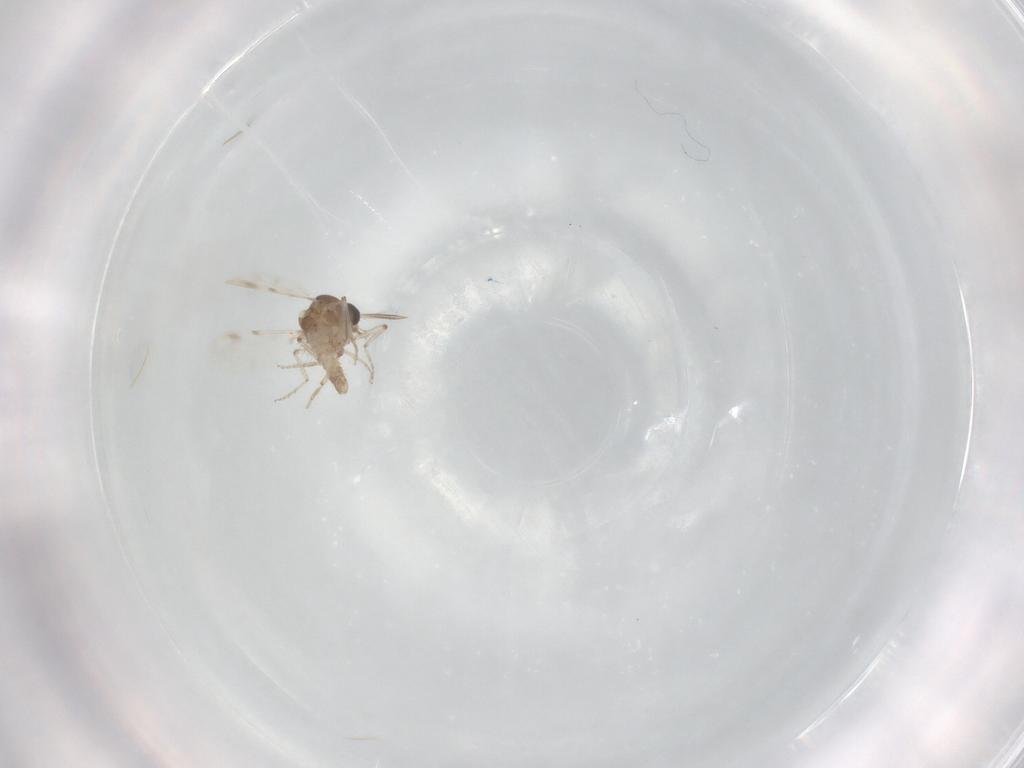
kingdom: Animalia
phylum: Arthropoda
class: Insecta
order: Diptera
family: Ceratopogonidae
